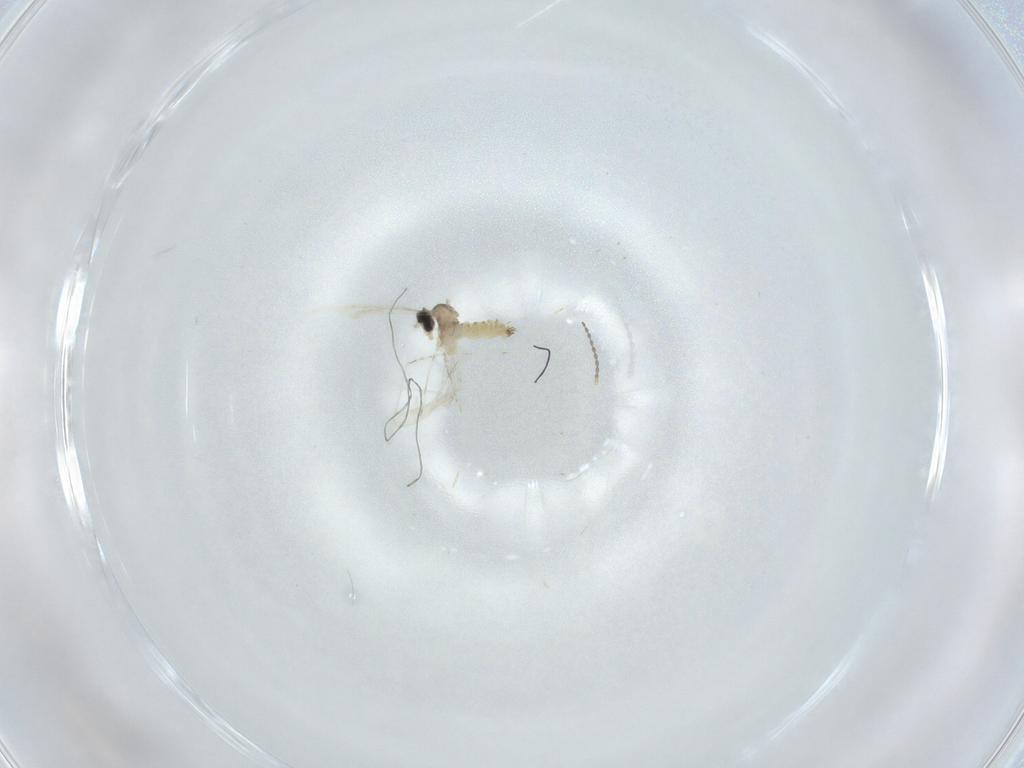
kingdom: Animalia
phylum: Arthropoda
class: Insecta
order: Diptera
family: Cecidomyiidae
